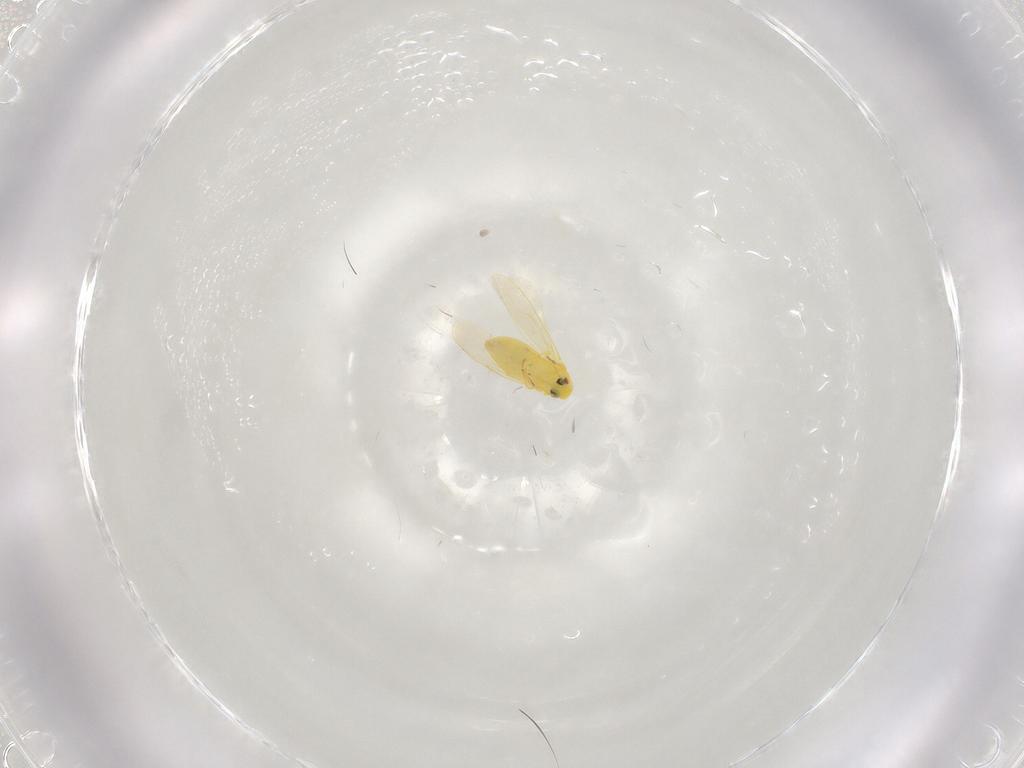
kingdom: Animalia
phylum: Arthropoda
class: Insecta
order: Hemiptera
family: Aleyrodidae
